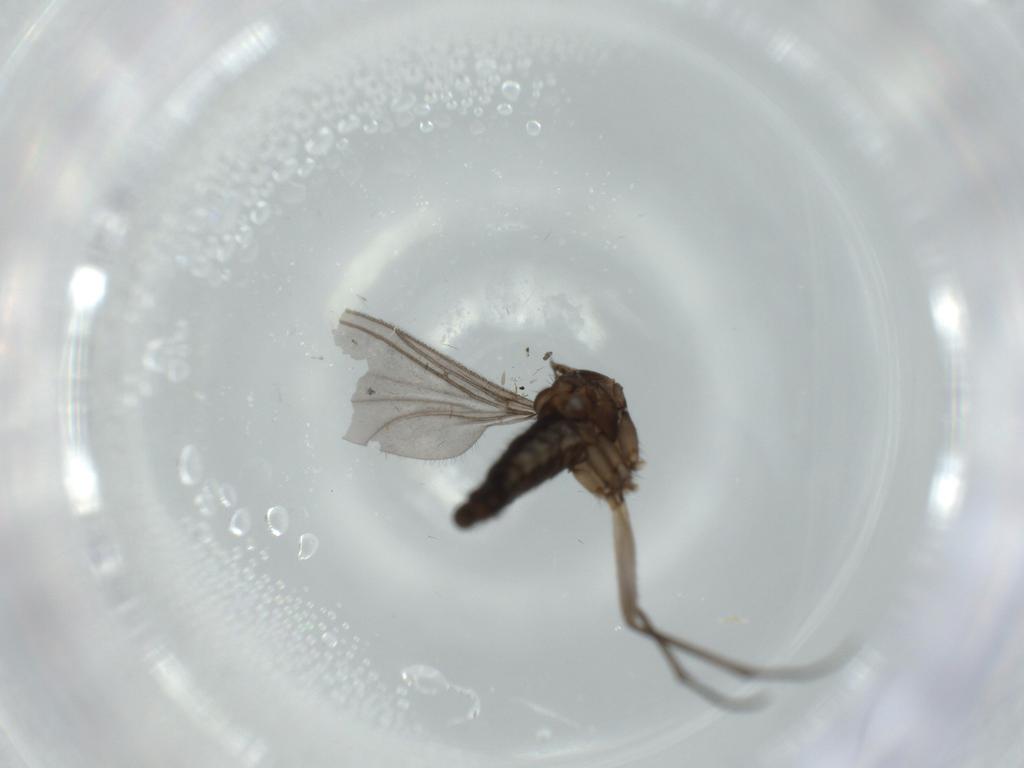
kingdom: Animalia
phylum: Arthropoda
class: Insecta
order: Diptera
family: Sciaridae
